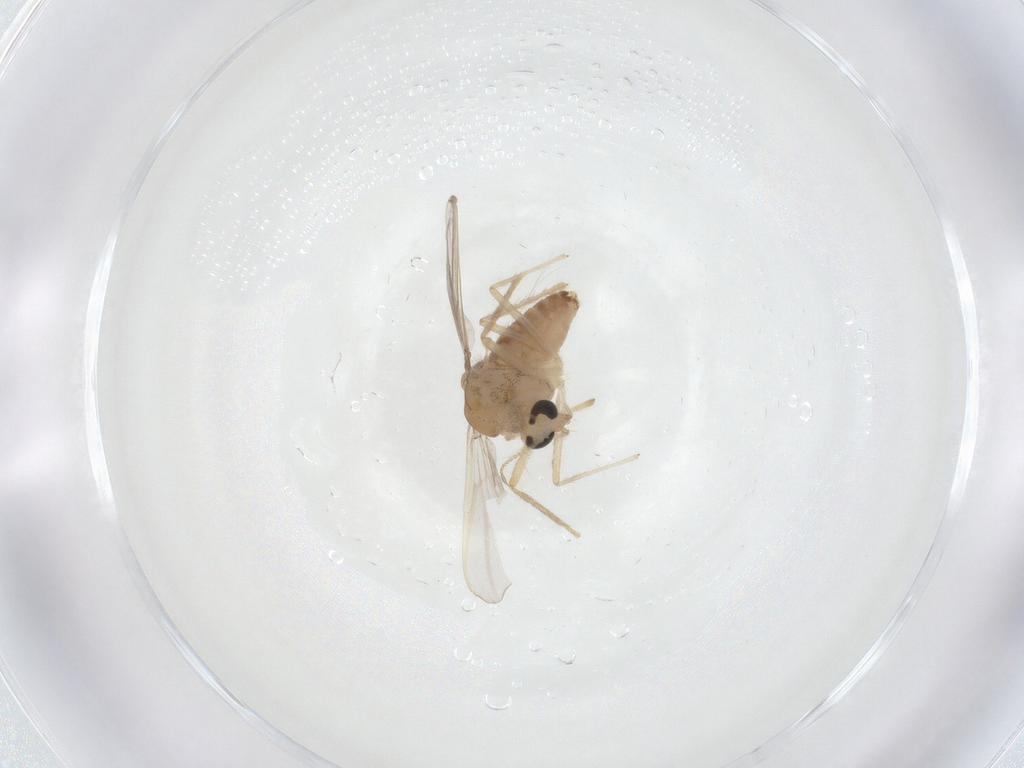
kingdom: Animalia
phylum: Arthropoda
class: Insecta
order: Diptera
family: Chironomidae
